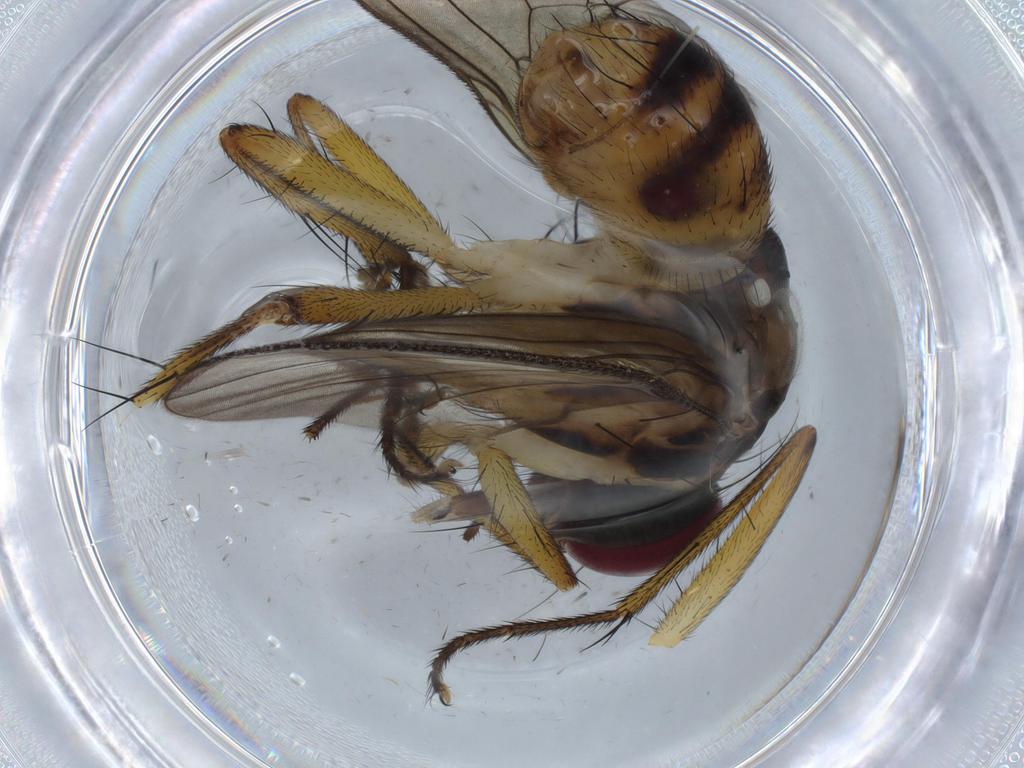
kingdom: Animalia
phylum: Arthropoda
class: Insecta
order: Diptera
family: Muscidae
